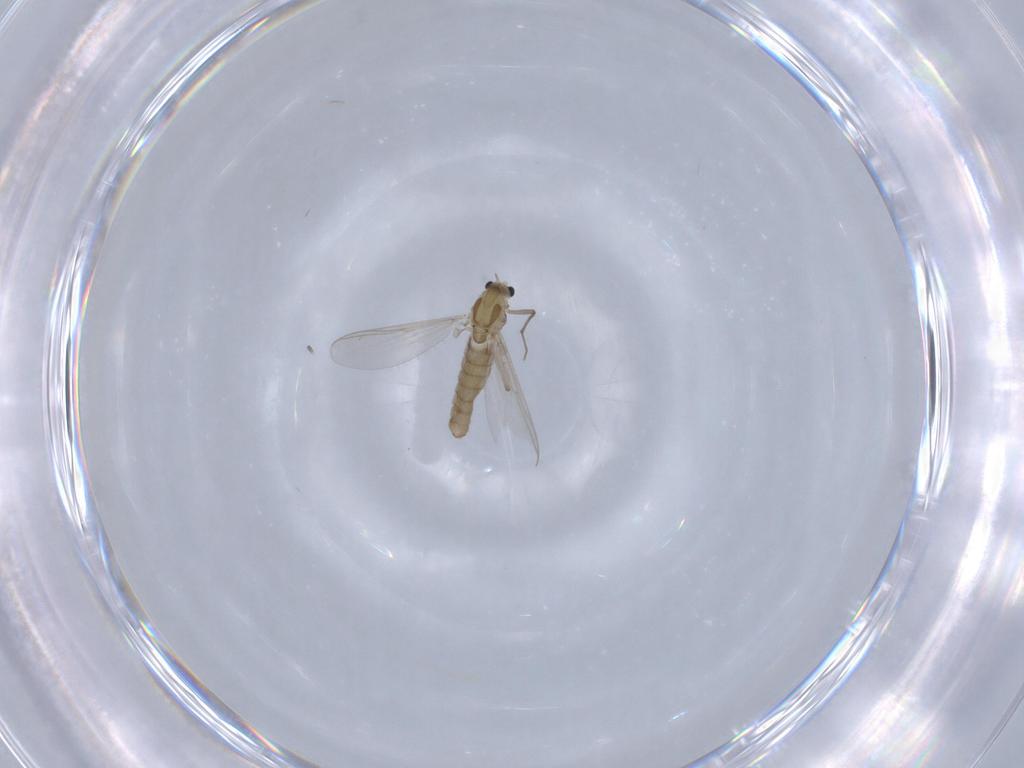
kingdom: Animalia
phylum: Arthropoda
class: Insecta
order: Diptera
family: Chironomidae
